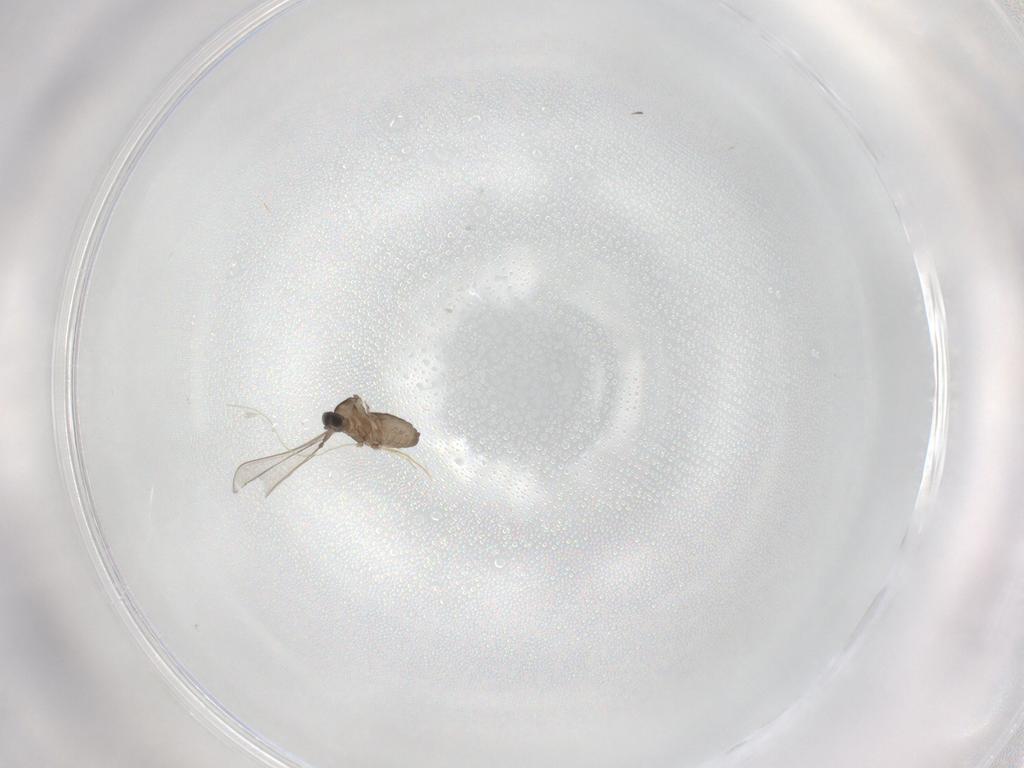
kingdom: Animalia
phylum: Arthropoda
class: Insecta
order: Diptera
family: Cecidomyiidae
